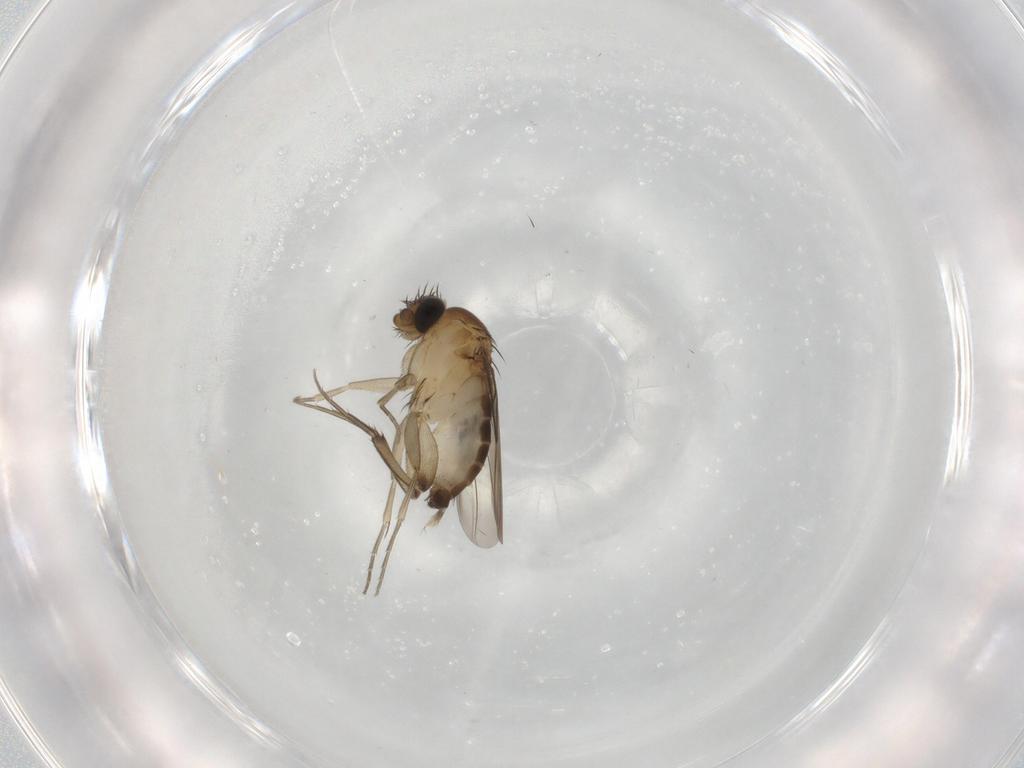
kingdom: Animalia
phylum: Arthropoda
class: Insecta
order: Diptera
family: Phoridae
